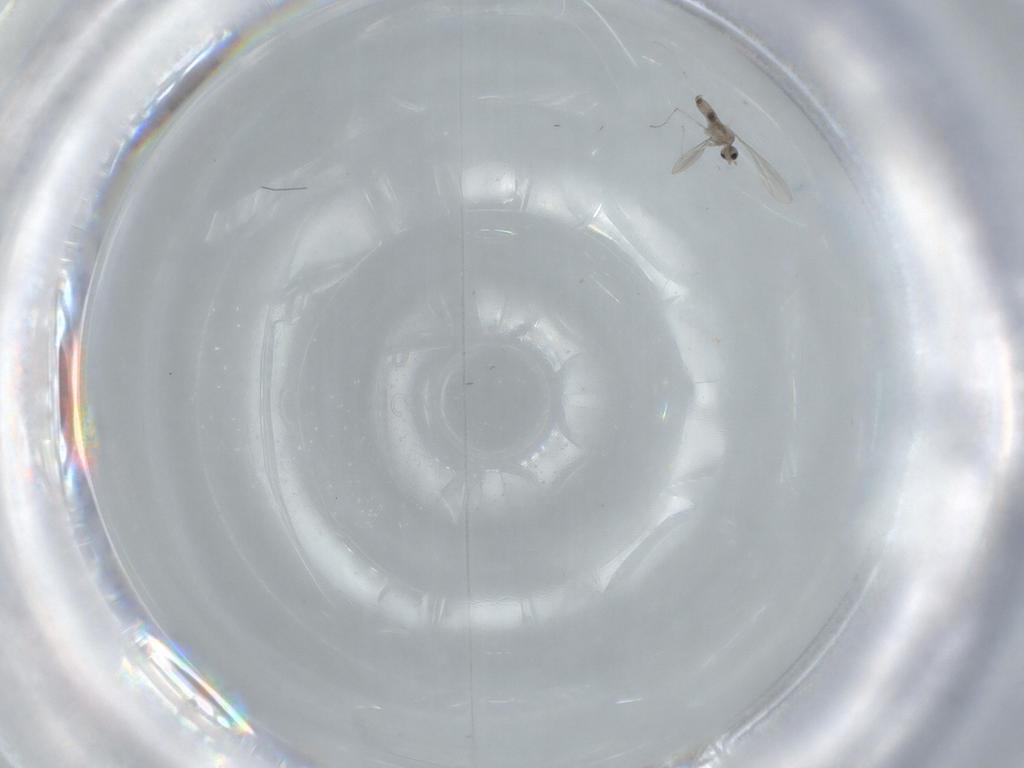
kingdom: Animalia
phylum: Arthropoda
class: Insecta
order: Diptera
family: Cecidomyiidae
